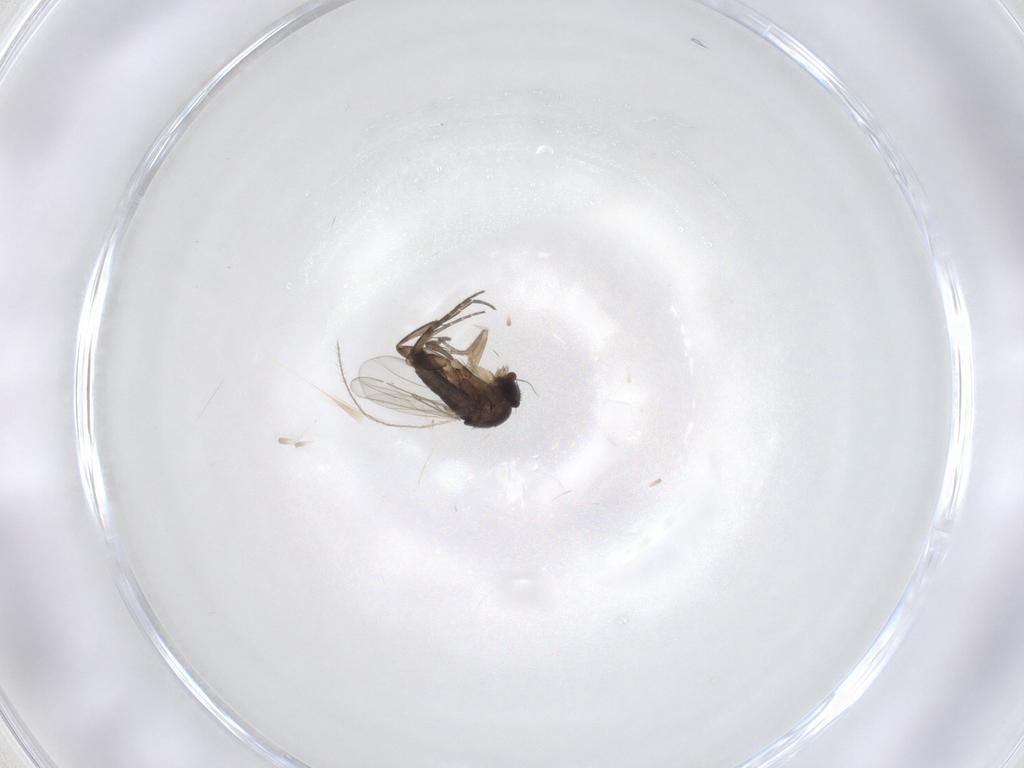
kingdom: Animalia
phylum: Arthropoda
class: Insecta
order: Diptera
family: Phoridae
